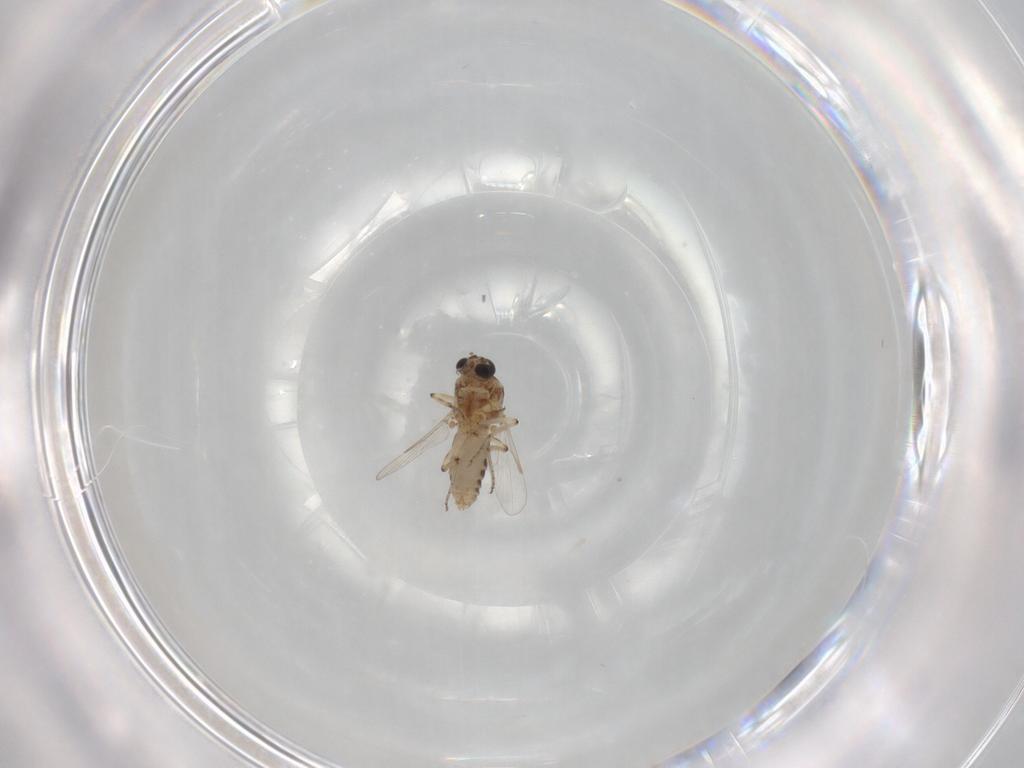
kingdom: Animalia
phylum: Arthropoda
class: Insecta
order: Diptera
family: Ceratopogonidae
